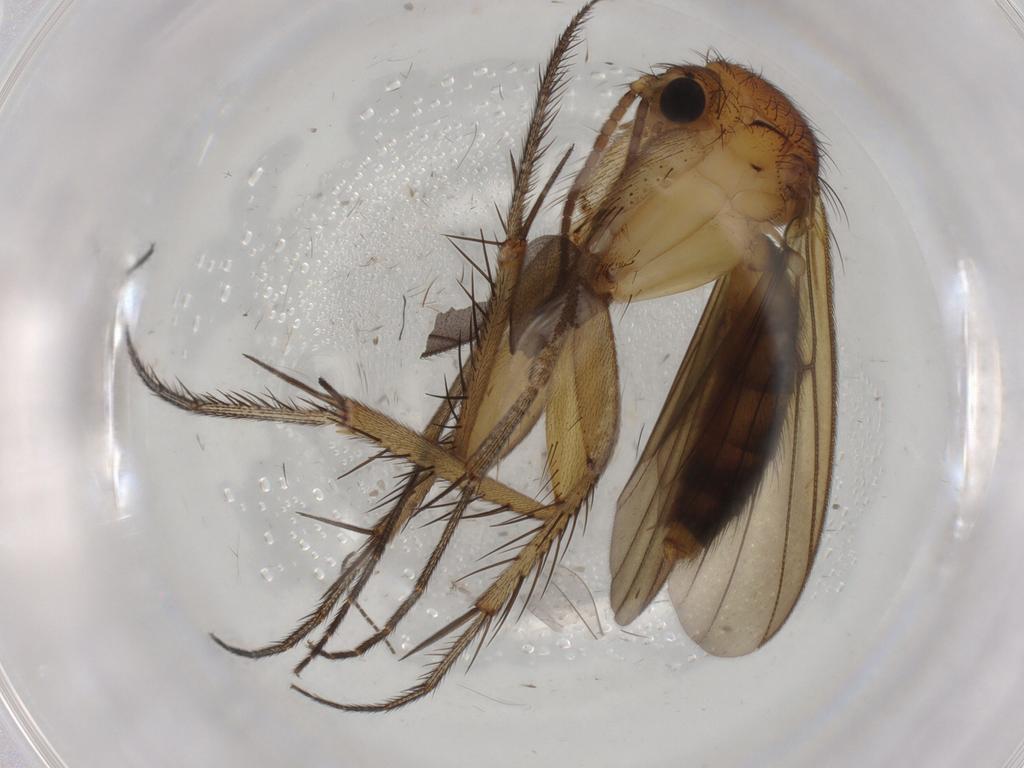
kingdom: Animalia
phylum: Arthropoda
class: Insecta
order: Diptera
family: Limoniidae
